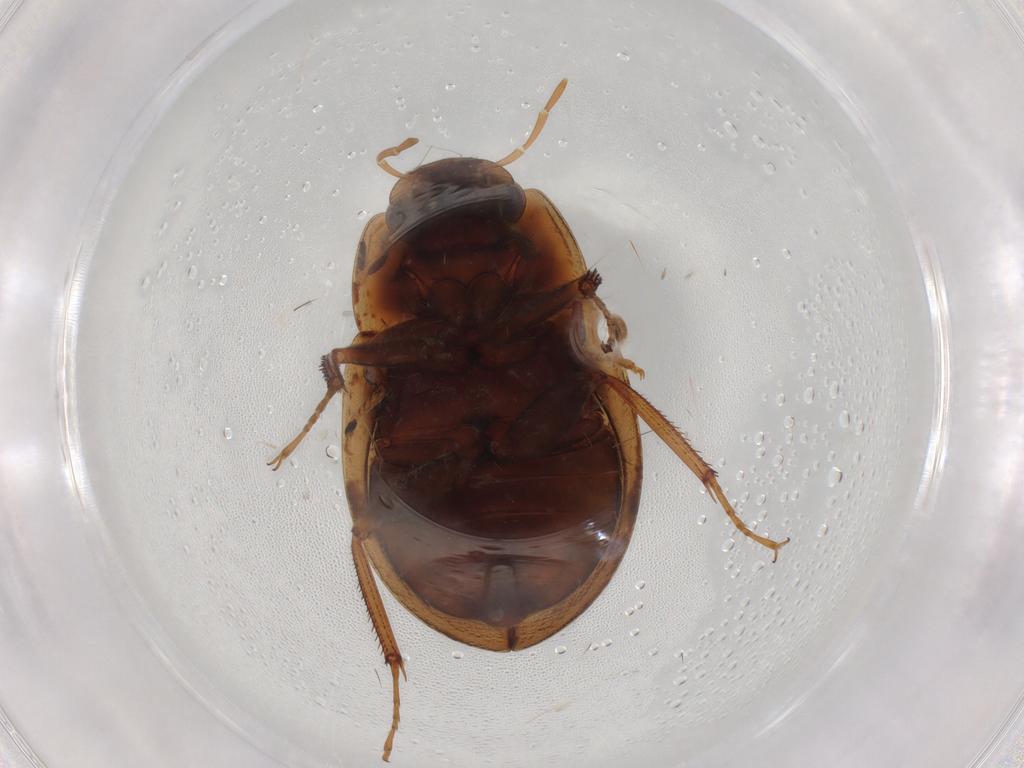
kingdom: Animalia
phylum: Arthropoda
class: Insecta
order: Coleoptera
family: Hydrophilidae
